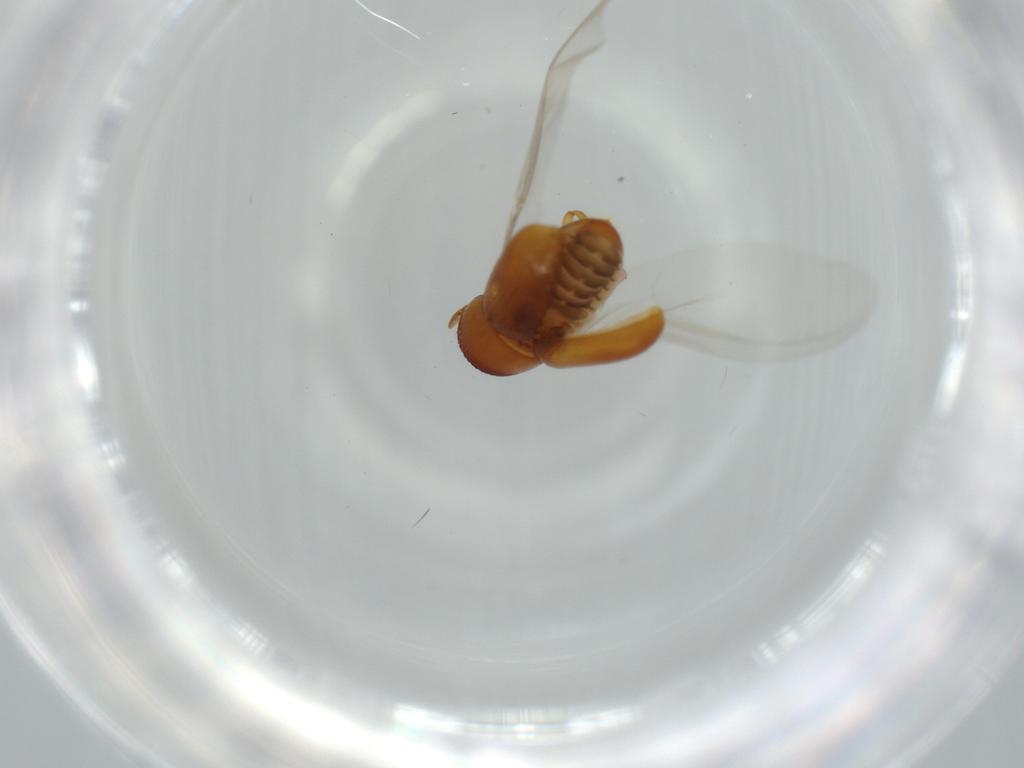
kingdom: Animalia
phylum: Arthropoda
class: Insecta
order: Coleoptera
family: Curculionidae
